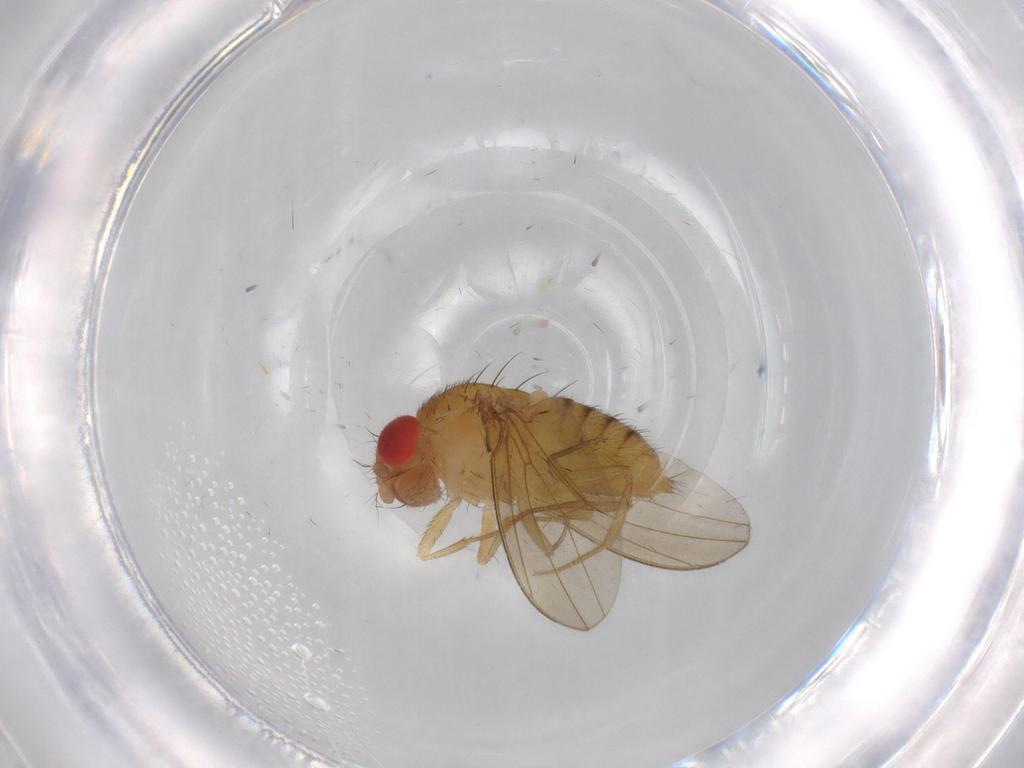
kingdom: Animalia
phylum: Arthropoda
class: Insecta
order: Diptera
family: Drosophilidae
